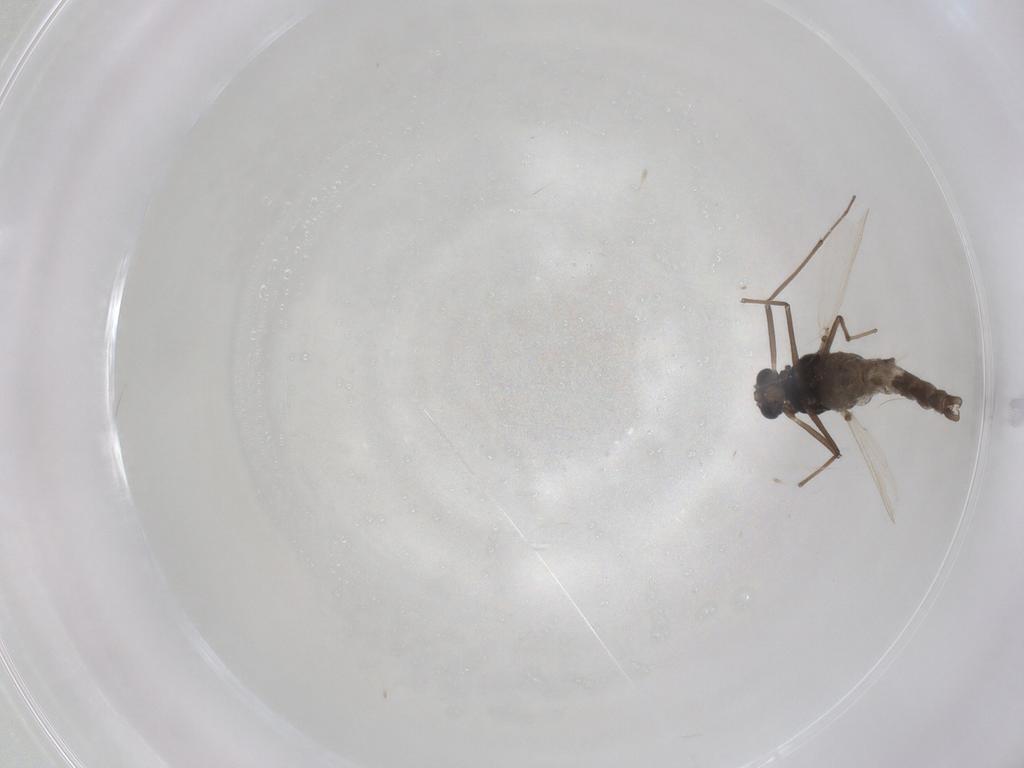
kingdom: Animalia
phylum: Arthropoda
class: Insecta
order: Diptera
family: Chironomidae
